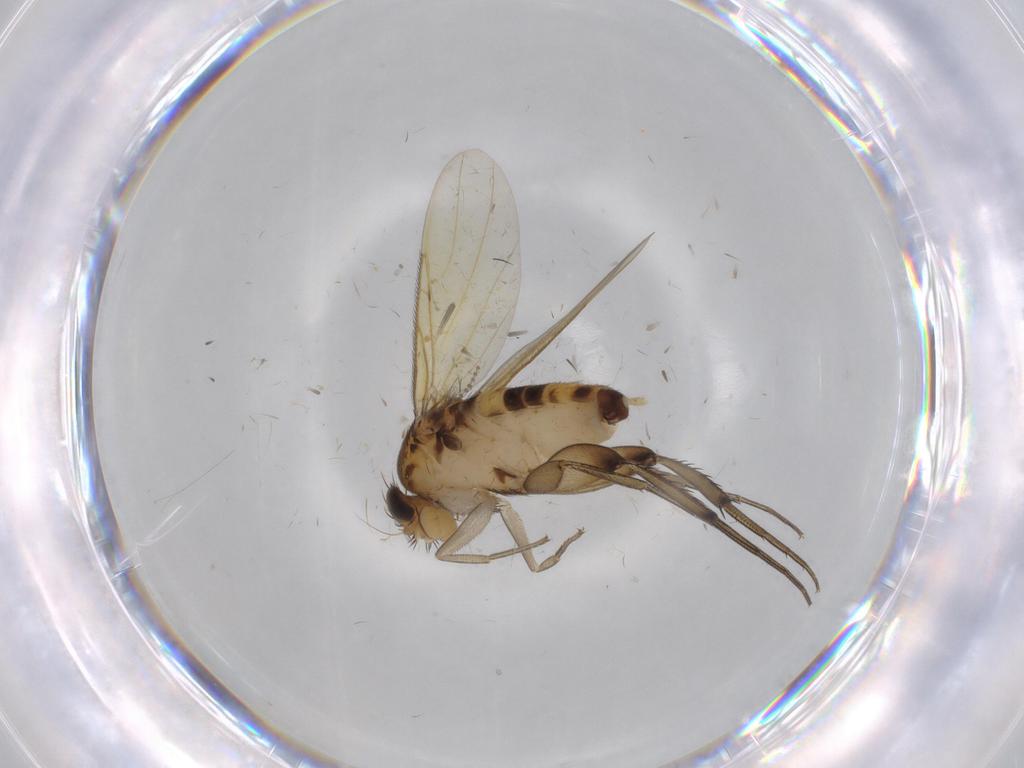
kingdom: Animalia
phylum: Arthropoda
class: Insecta
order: Diptera
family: Phoridae
